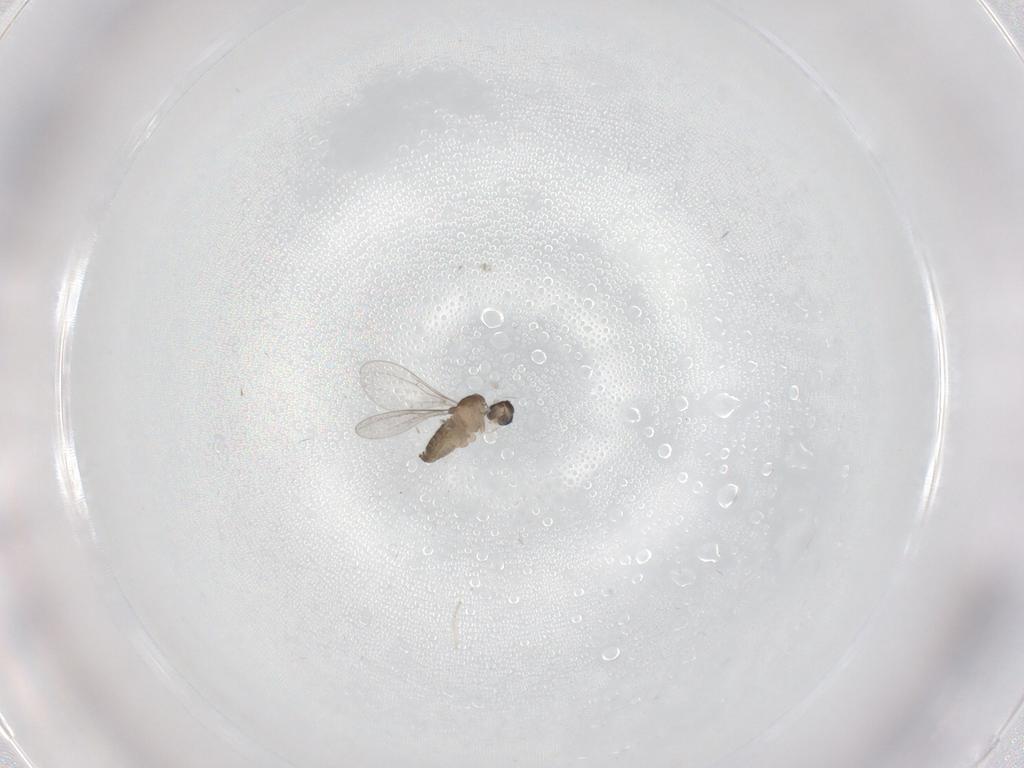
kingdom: Animalia
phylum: Arthropoda
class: Insecta
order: Diptera
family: Cecidomyiidae
